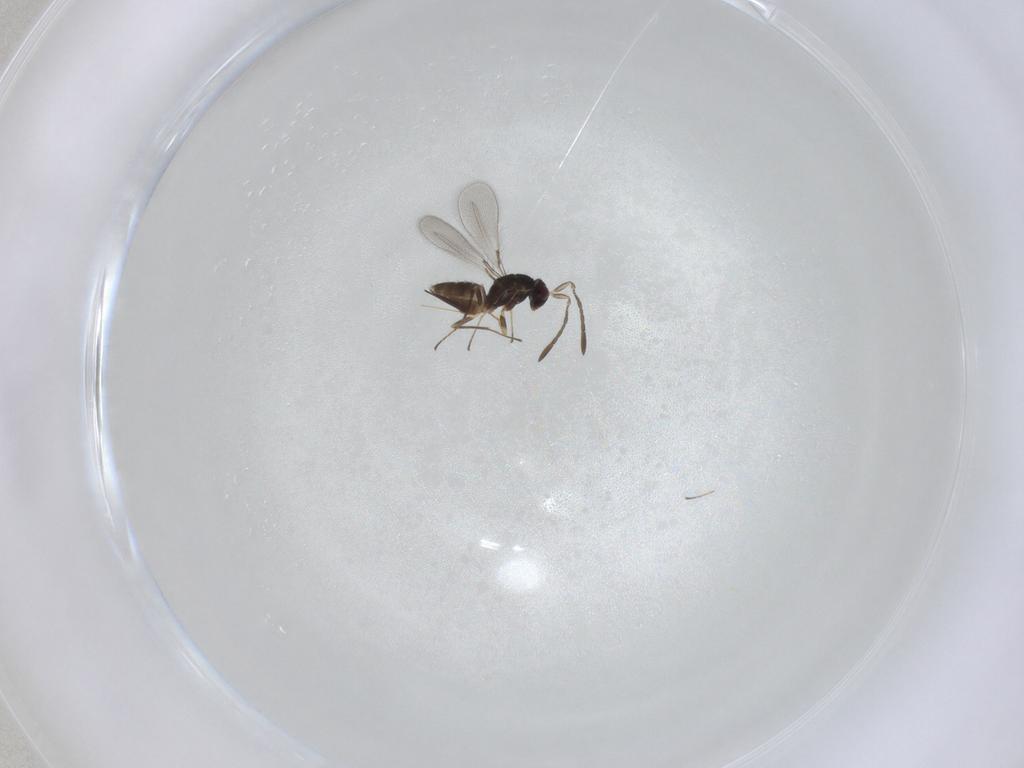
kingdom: Animalia
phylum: Arthropoda
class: Insecta
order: Hymenoptera
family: Mymaridae
